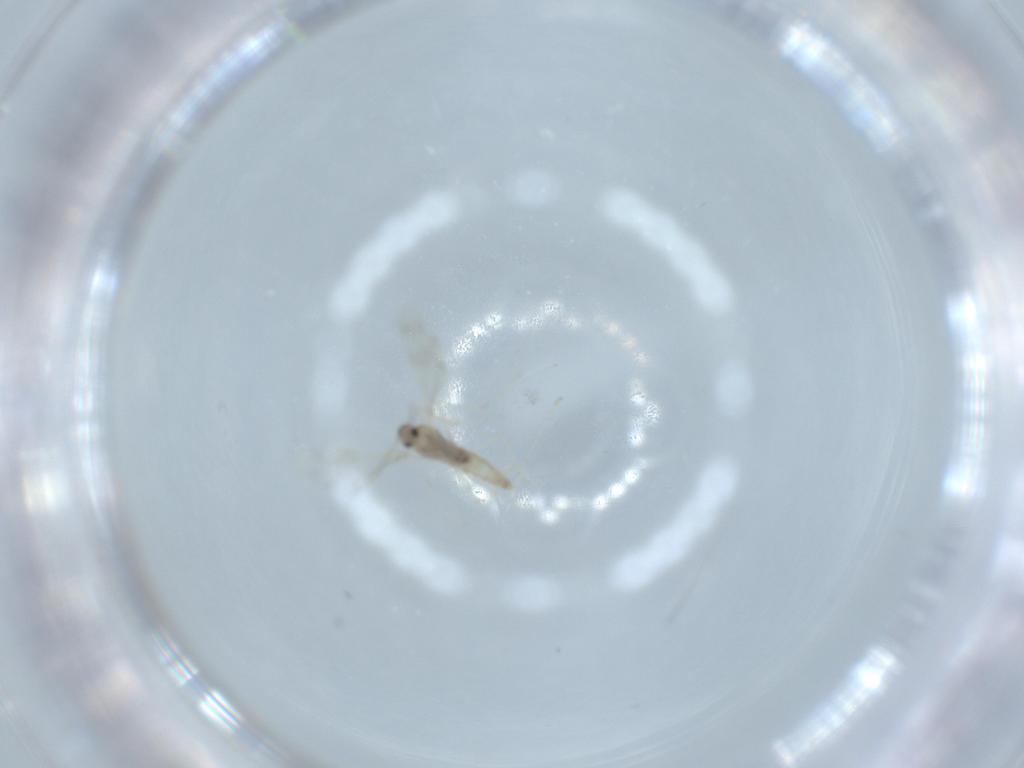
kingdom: Animalia
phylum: Arthropoda
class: Insecta
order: Diptera
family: Cecidomyiidae
